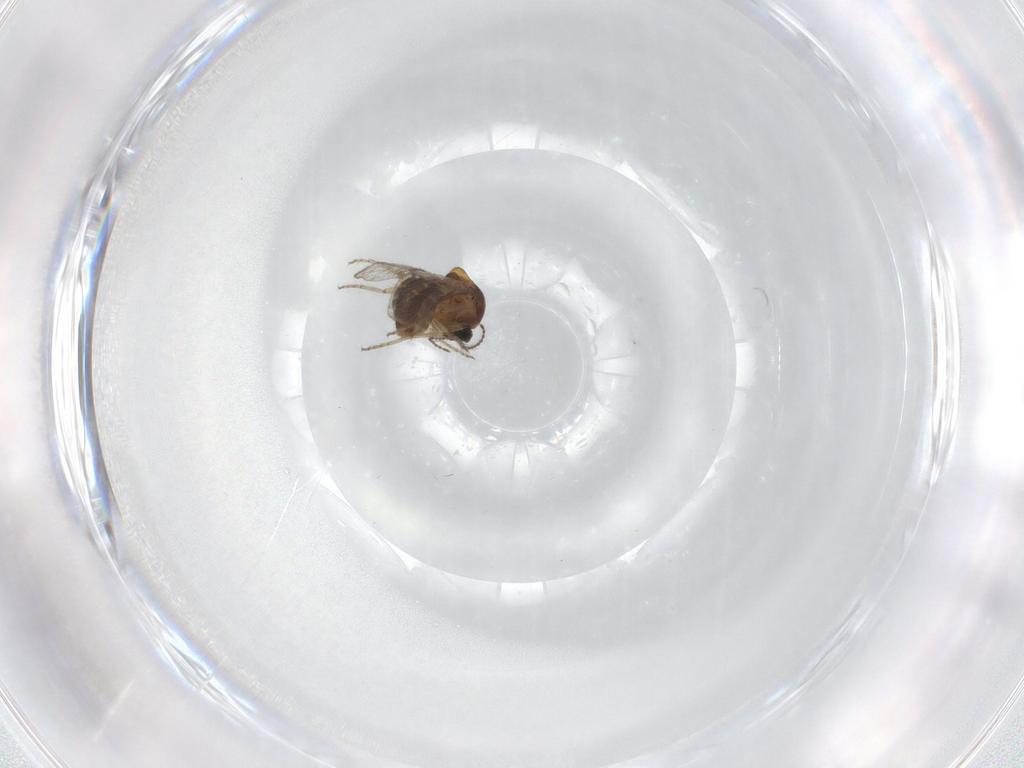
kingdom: Animalia
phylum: Arthropoda
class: Insecta
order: Diptera
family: Ceratopogonidae
